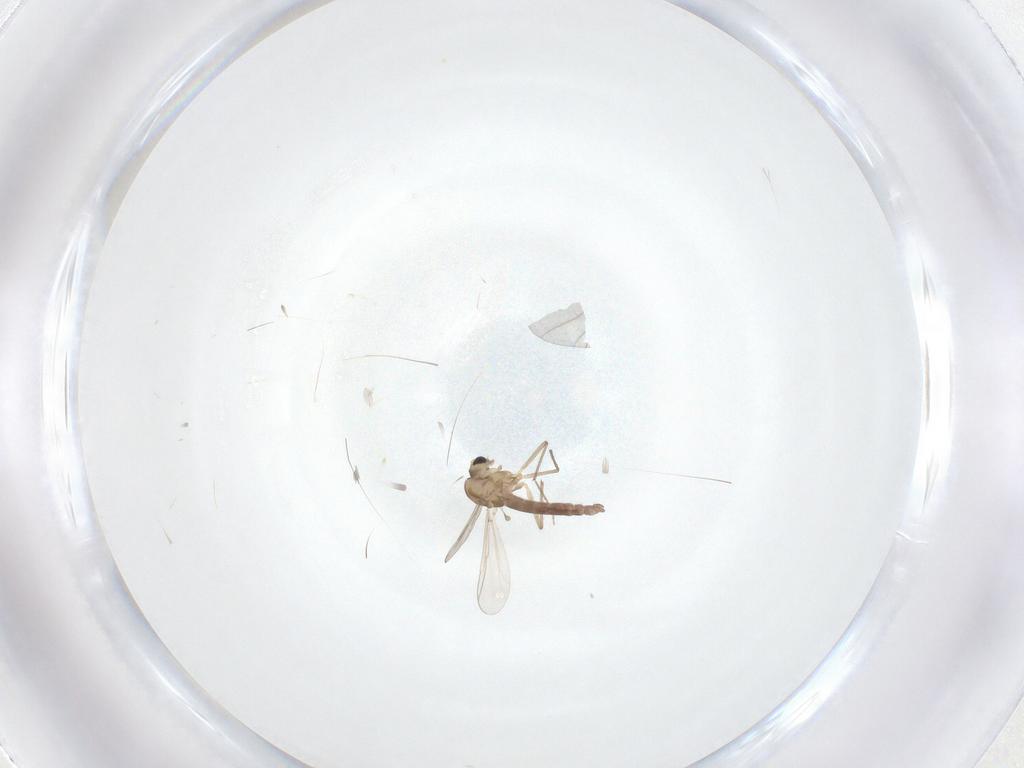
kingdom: Animalia
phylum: Arthropoda
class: Insecta
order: Diptera
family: Chironomidae
